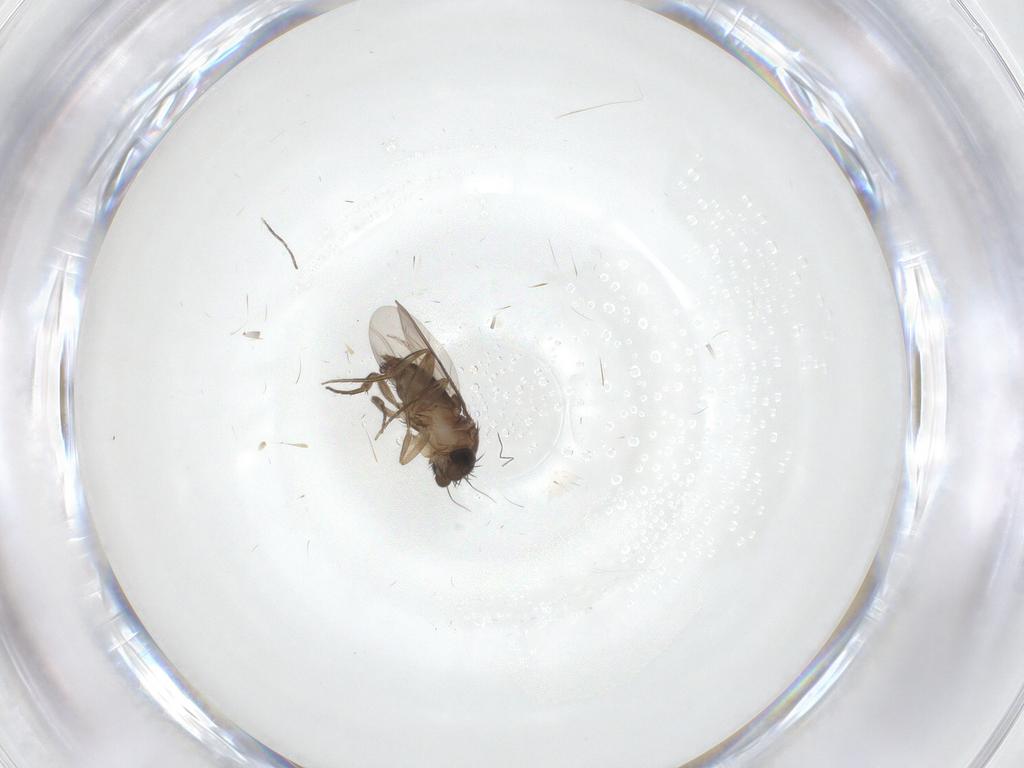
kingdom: Animalia
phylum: Arthropoda
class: Insecta
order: Diptera
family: Phoridae
